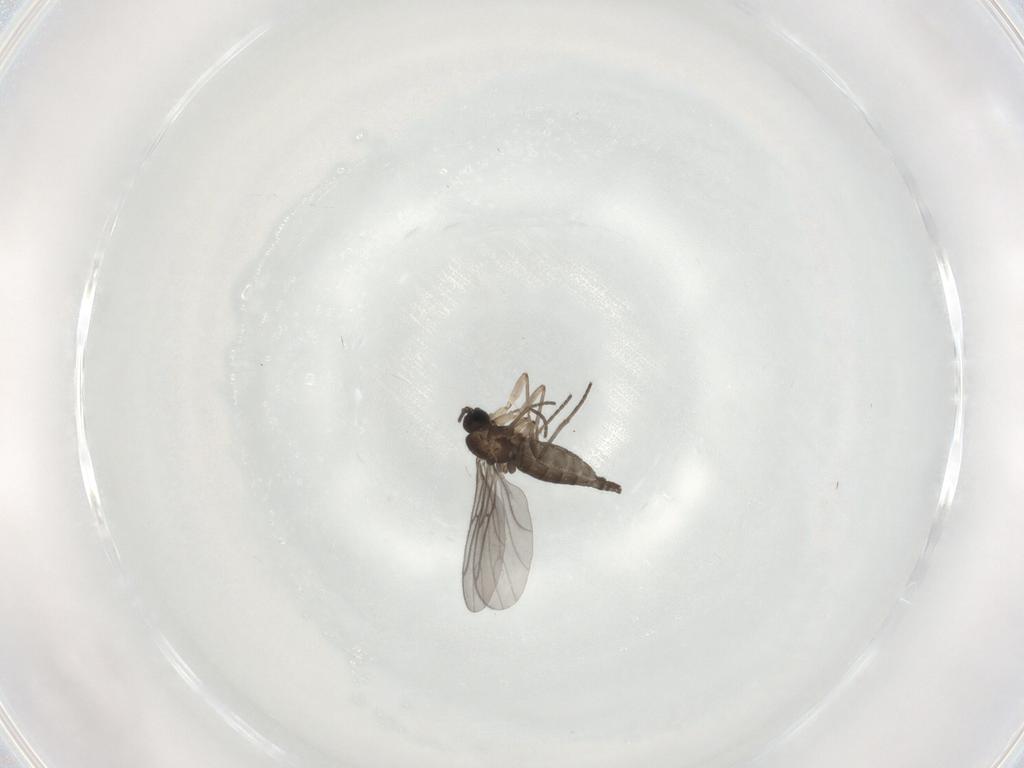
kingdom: Animalia
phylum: Arthropoda
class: Insecta
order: Diptera
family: Sciaridae
